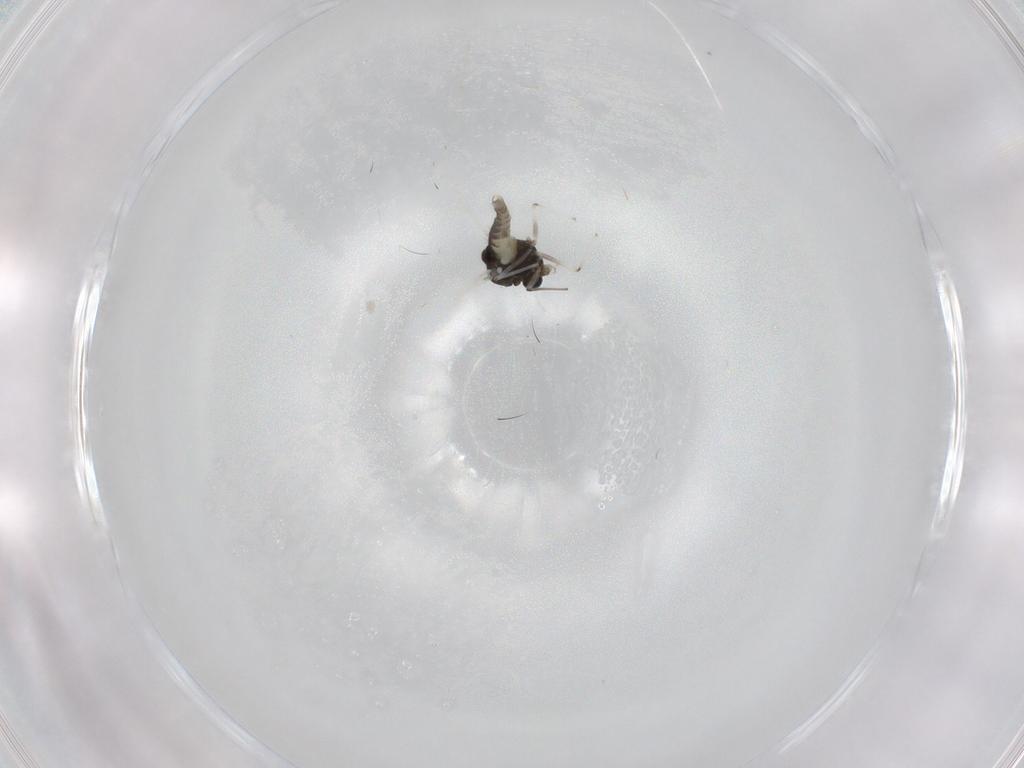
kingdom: Animalia
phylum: Arthropoda
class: Insecta
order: Diptera
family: Chironomidae
